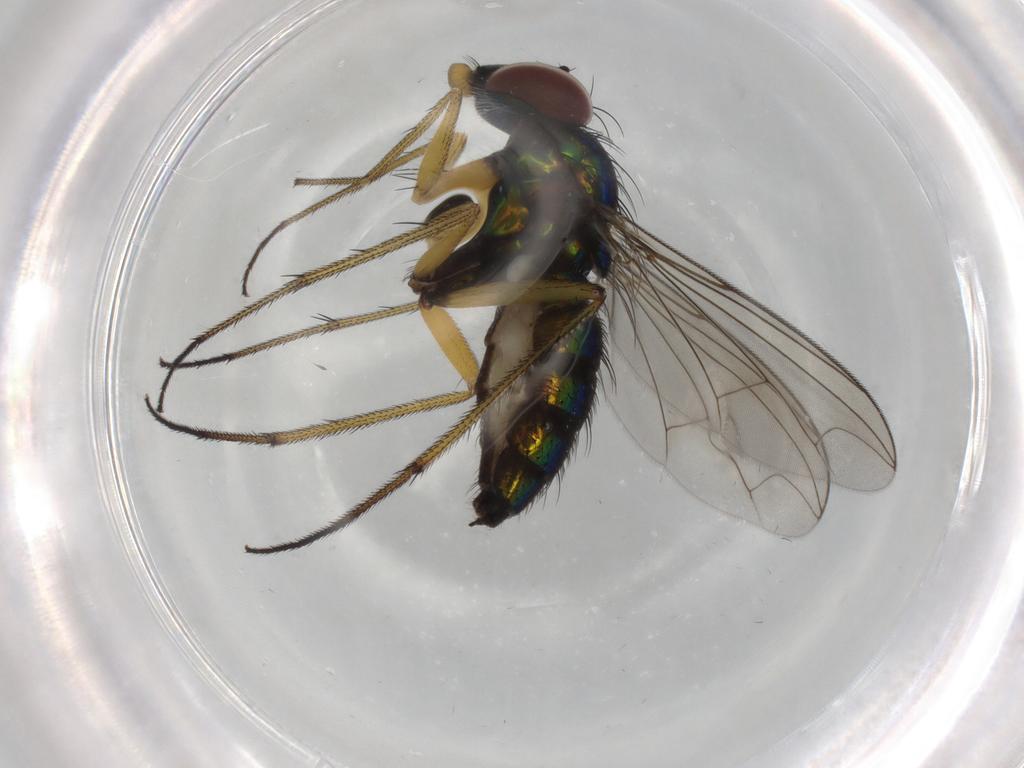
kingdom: Animalia
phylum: Arthropoda
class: Insecta
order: Diptera
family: Dolichopodidae
